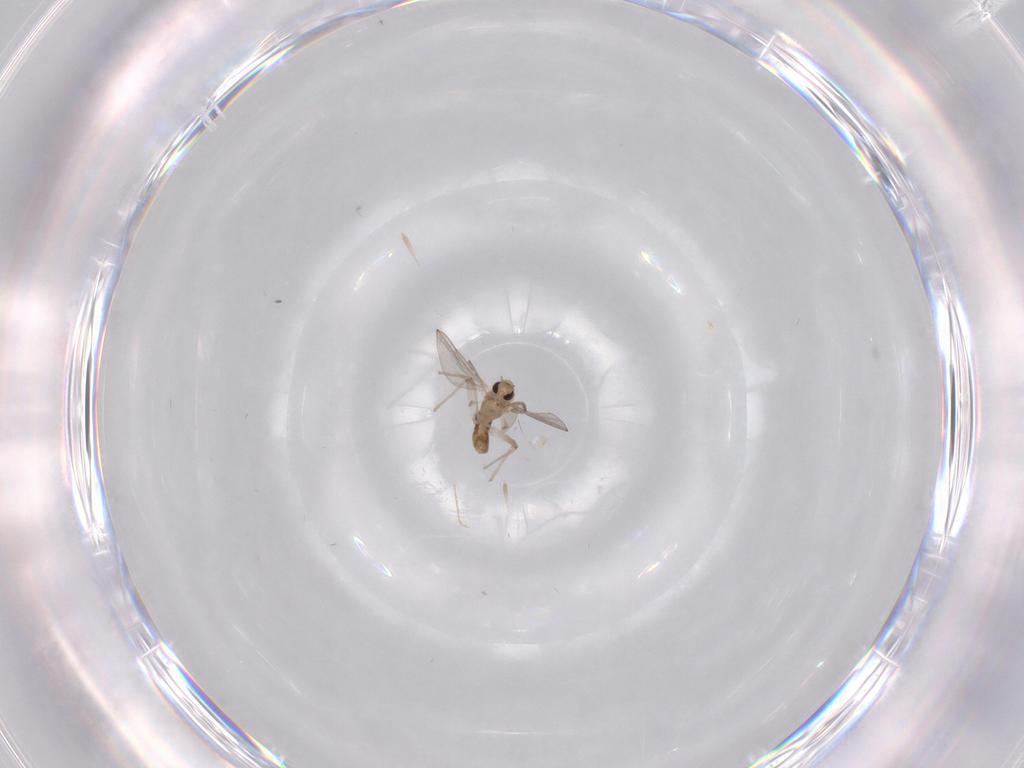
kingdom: Animalia
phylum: Arthropoda
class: Insecta
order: Diptera
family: Chironomidae
